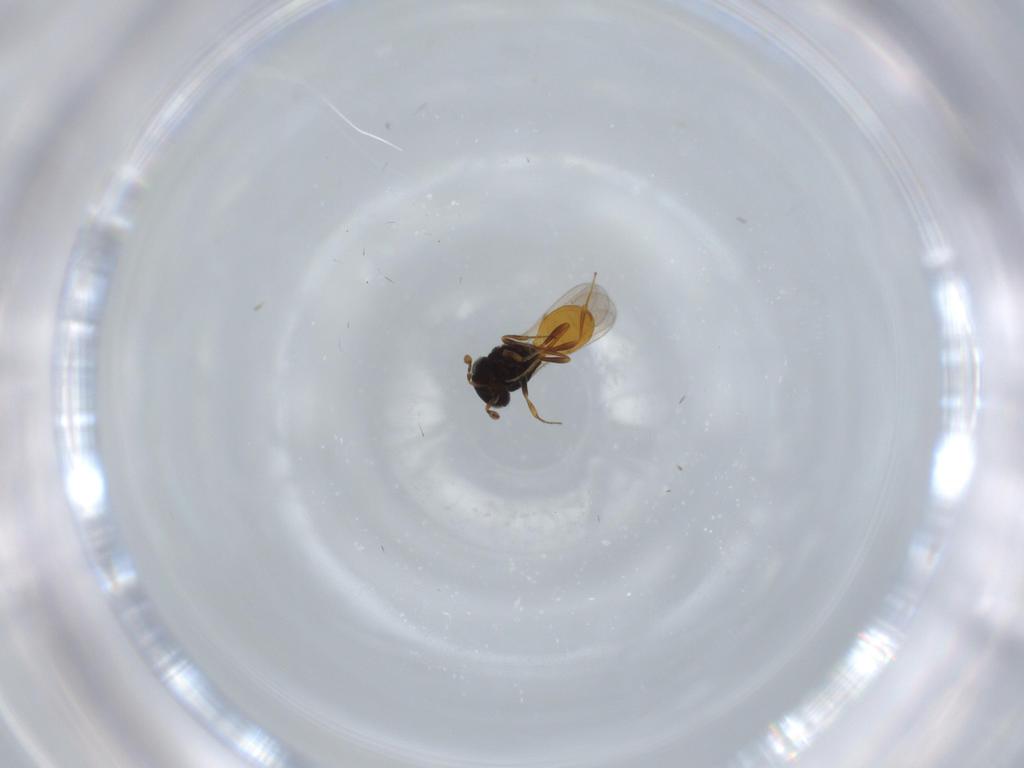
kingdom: Animalia
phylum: Arthropoda
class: Insecta
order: Hymenoptera
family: Scelionidae
